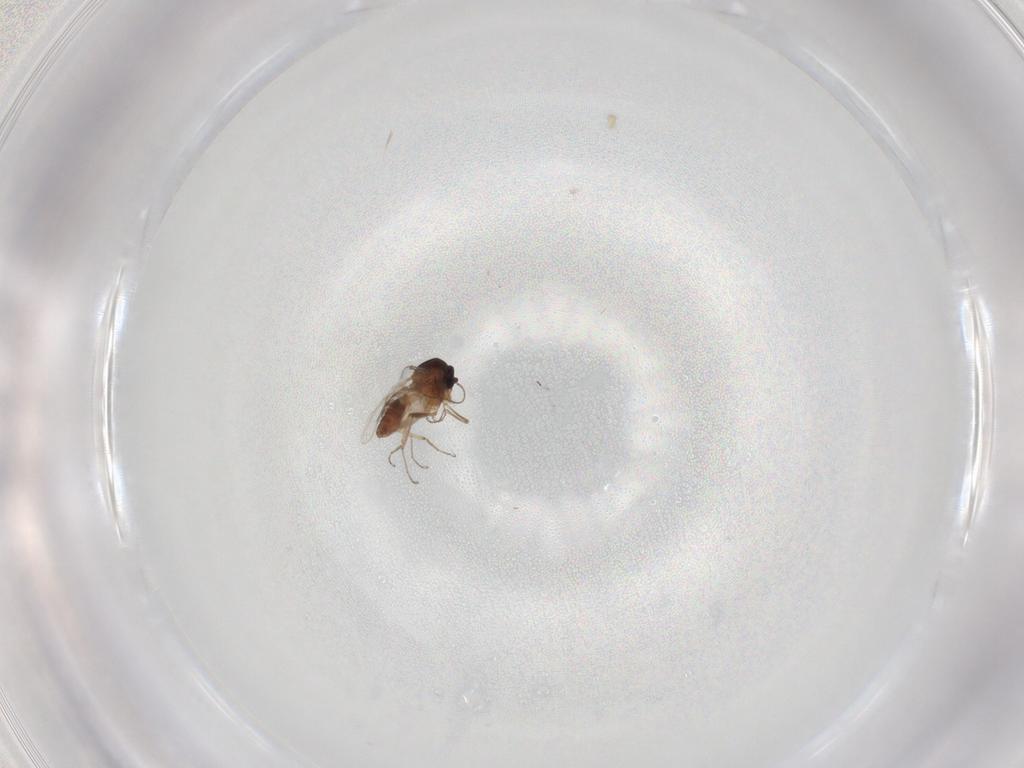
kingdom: Animalia
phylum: Arthropoda
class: Insecta
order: Diptera
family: Ceratopogonidae
